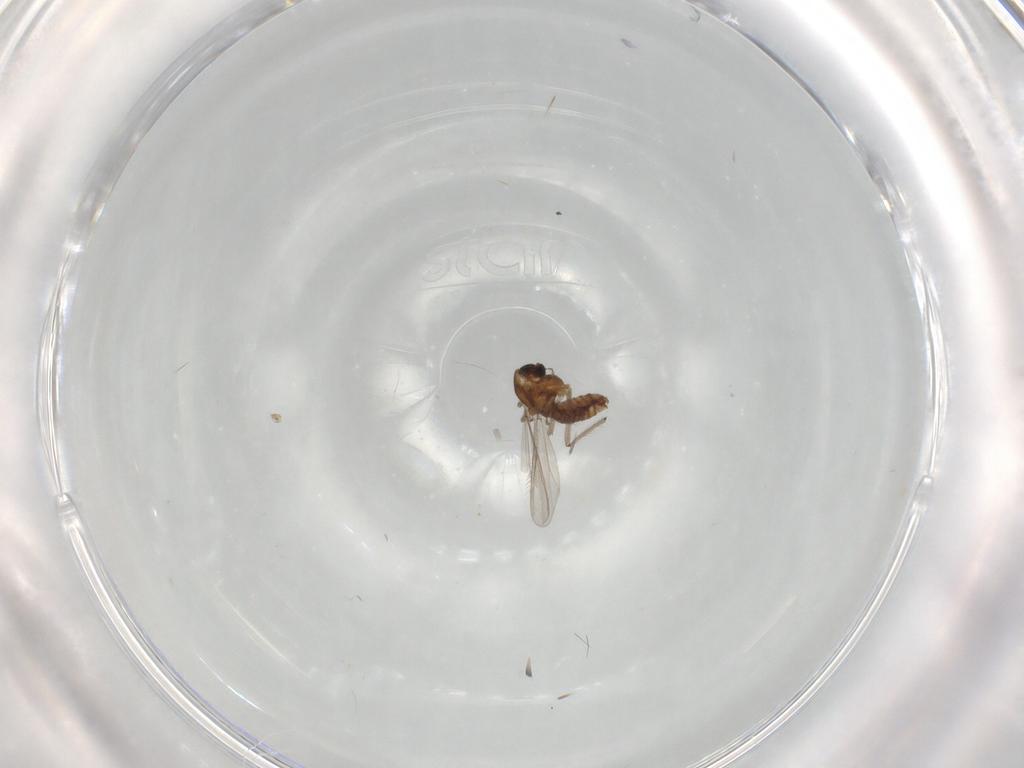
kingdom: Animalia
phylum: Arthropoda
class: Insecta
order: Diptera
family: Chironomidae
